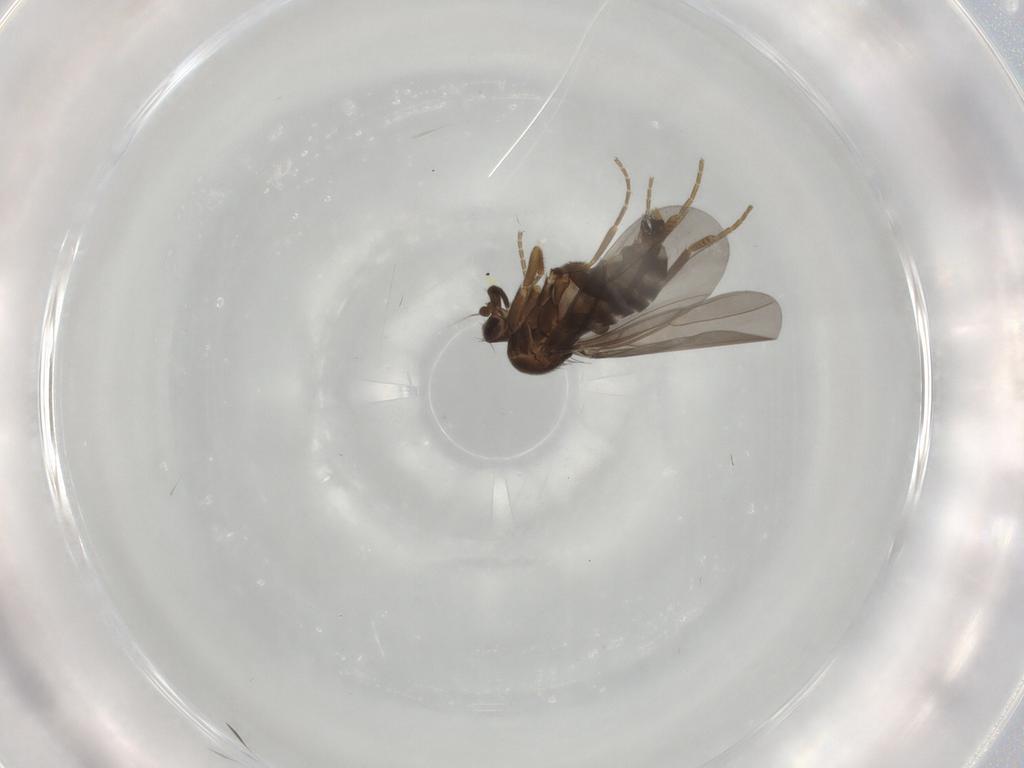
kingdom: Animalia
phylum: Arthropoda
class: Insecta
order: Diptera
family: Chironomidae
